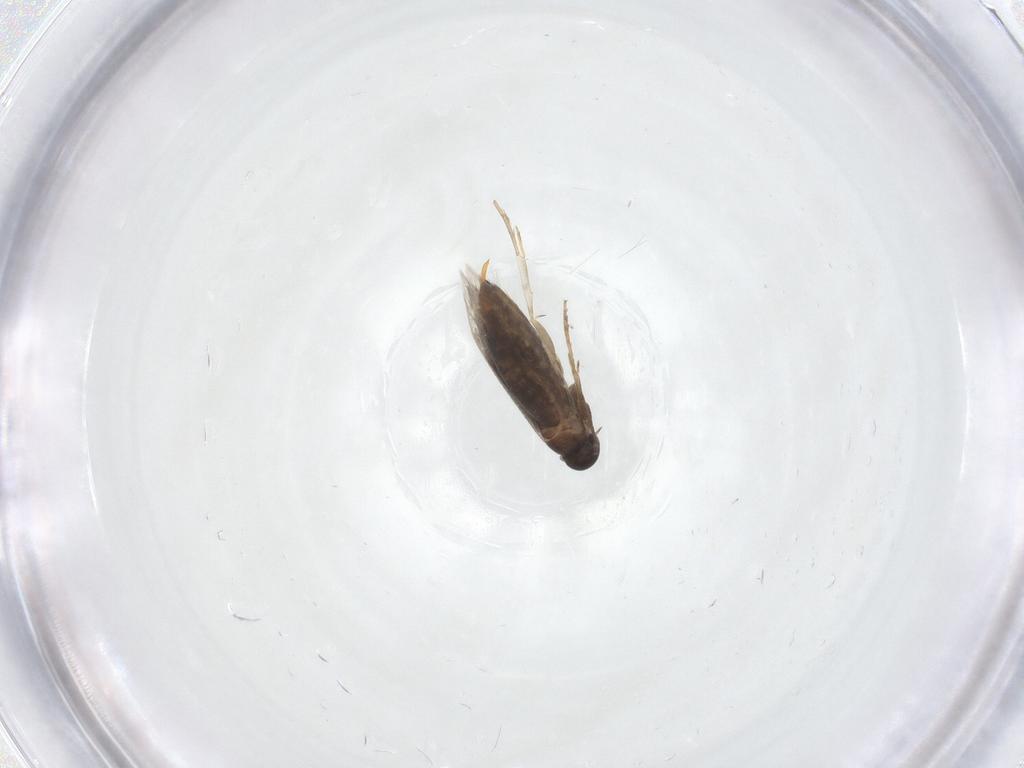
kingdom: Animalia
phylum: Arthropoda
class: Insecta
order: Lepidoptera
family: Heliozelidae
